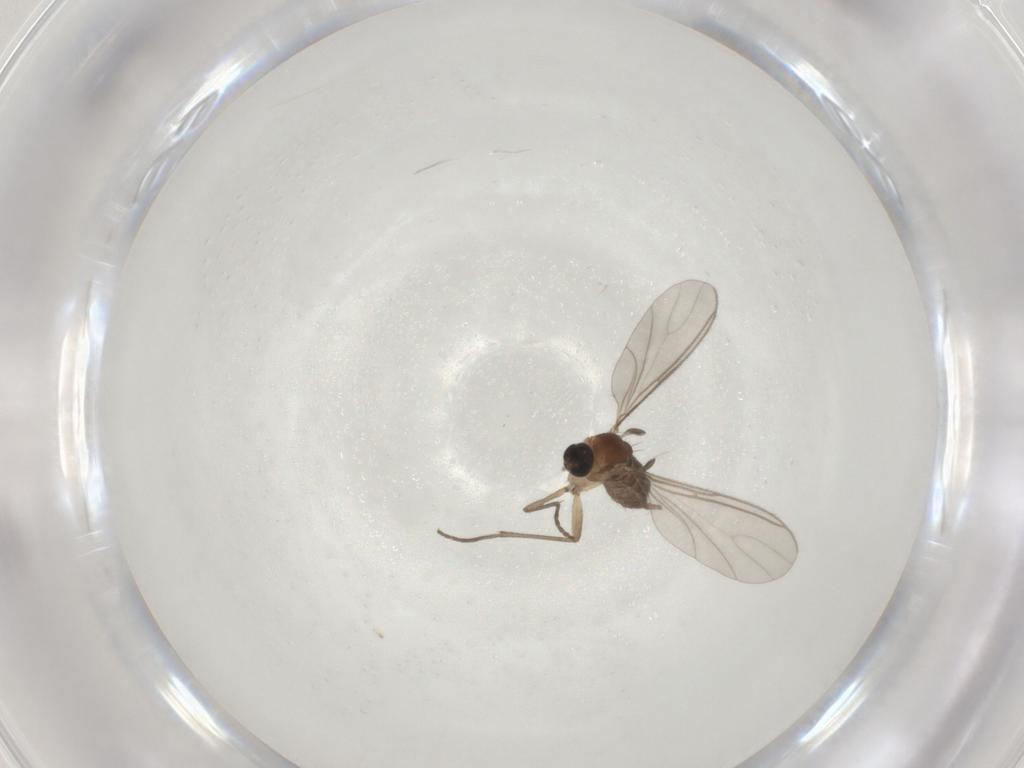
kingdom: Animalia
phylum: Arthropoda
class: Insecta
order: Diptera
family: Sciaridae
